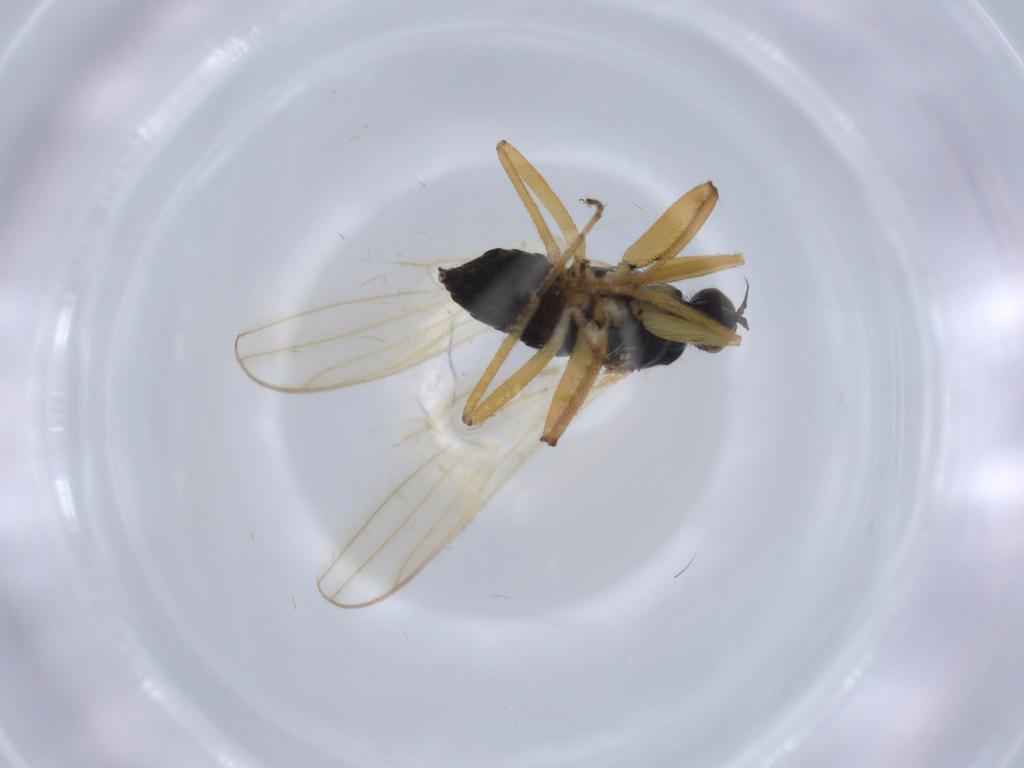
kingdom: Animalia
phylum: Arthropoda
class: Insecta
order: Diptera
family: Hybotidae
